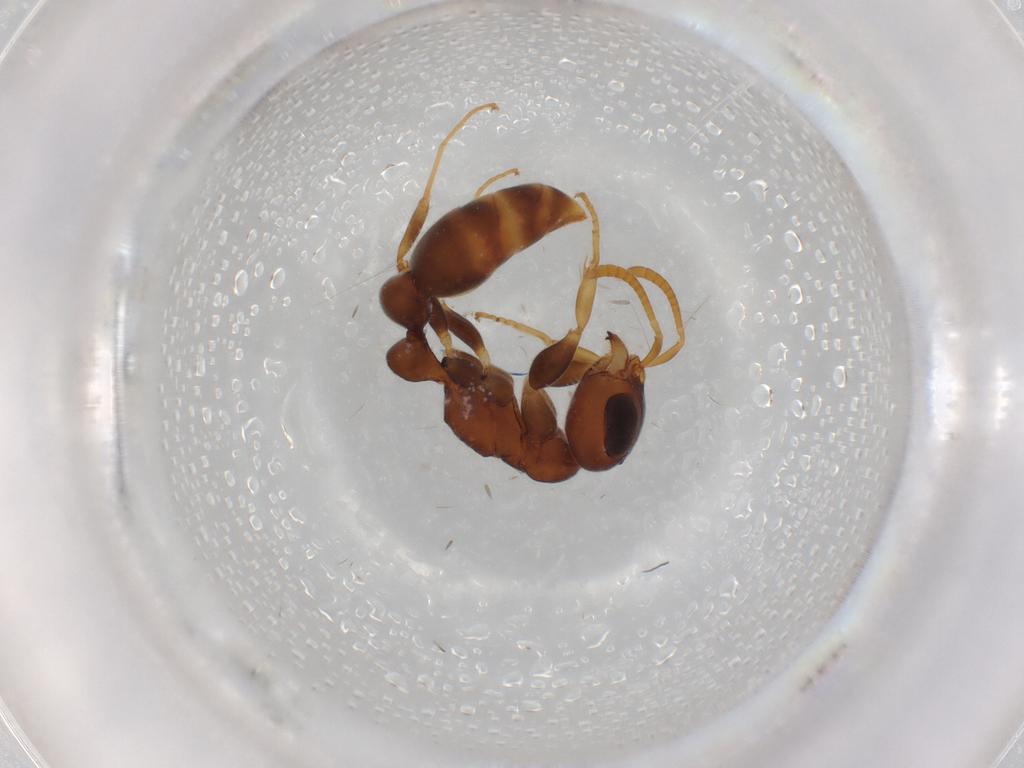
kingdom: Animalia
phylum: Arthropoda
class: Insecta
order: Hymenoptera
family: Formicidae
